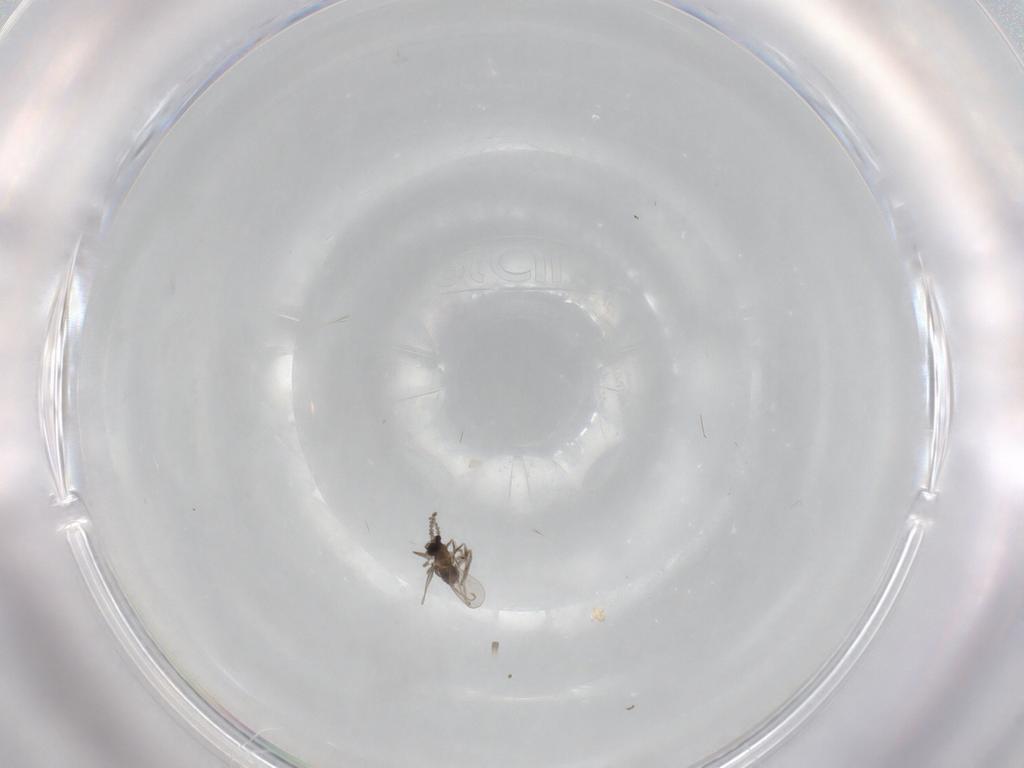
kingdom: Animalia
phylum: Arthropoda
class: Insecta
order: Diptera
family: Cecidomyiidae
